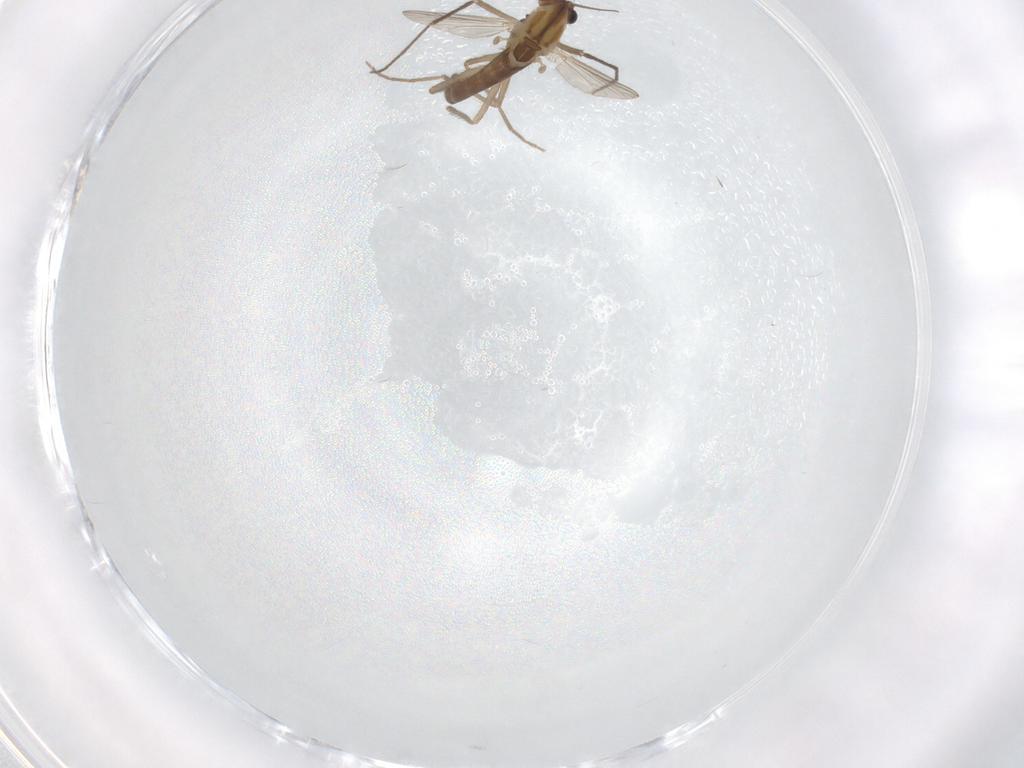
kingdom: Animalia
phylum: Arthropoda
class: Insecta
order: Diptera
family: Chironomidae
